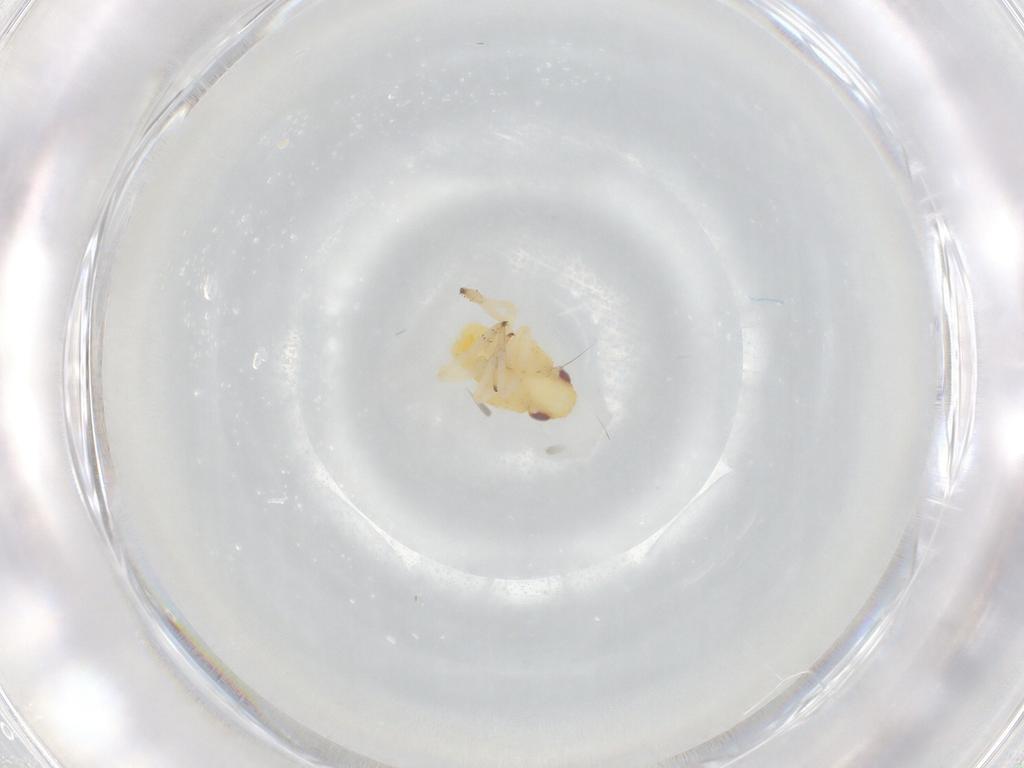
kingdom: Animalia
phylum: Arthropoda
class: Insecta
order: Hemiptera
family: Caliscelidae
